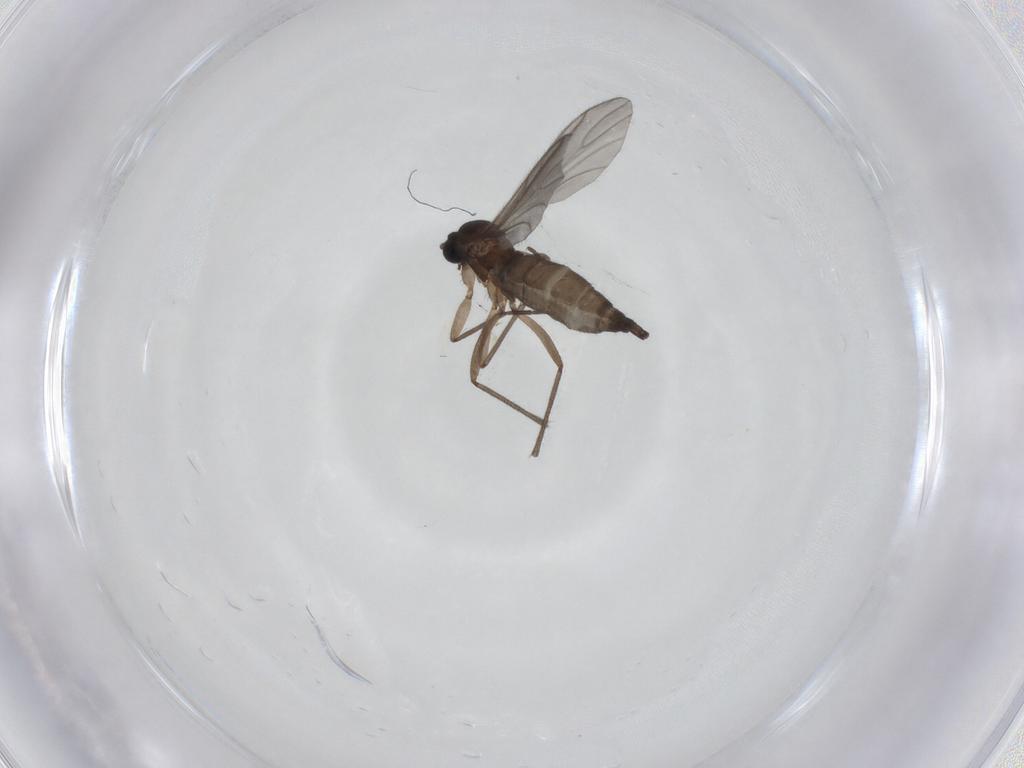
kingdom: Animalia
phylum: Arthropoda
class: Insecta
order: Diptera
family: Sciaridae
